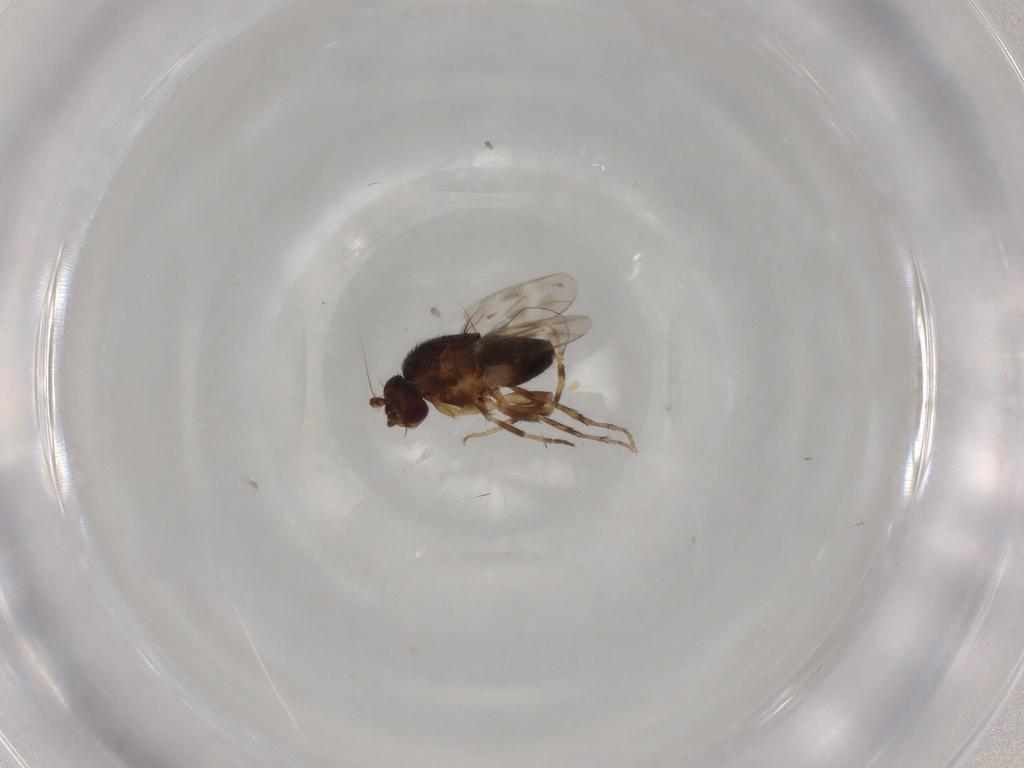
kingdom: Animalia
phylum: Arthropoda
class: Insecta
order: Diptera
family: Sphaeroceridae
